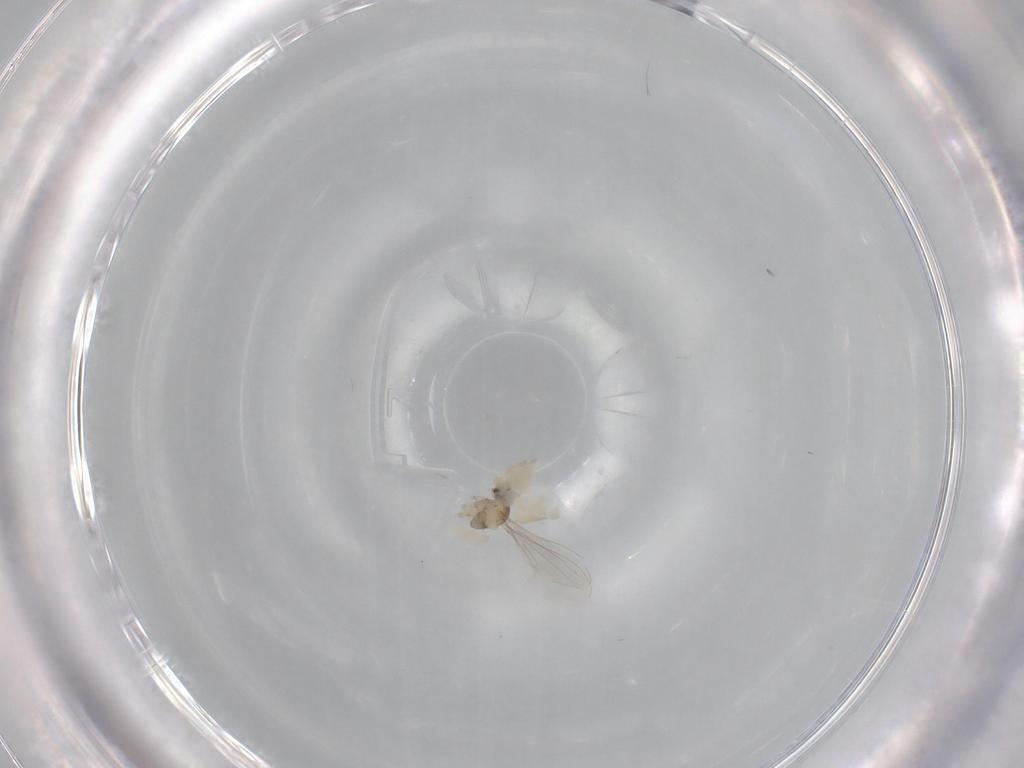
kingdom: Animalia
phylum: Arthropoda
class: Insecta
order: Diptera
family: Cecidomyiidae
